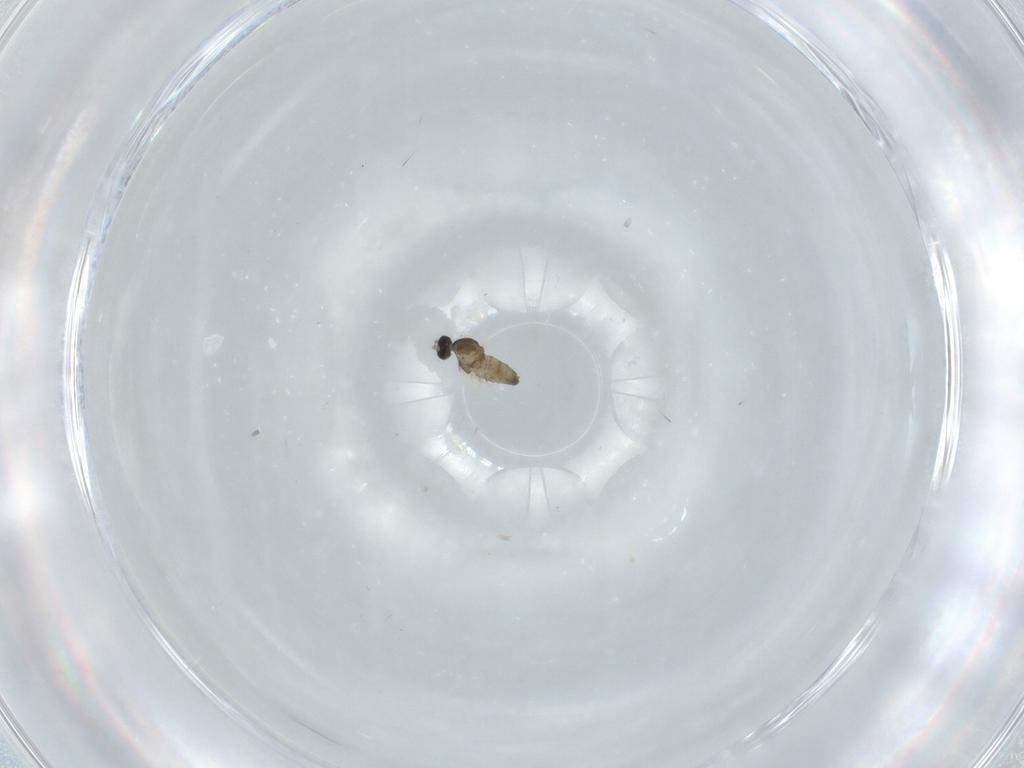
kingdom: Animalia
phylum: Arthropoda
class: Insecta
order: Diptera
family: Cecidomyiidae
